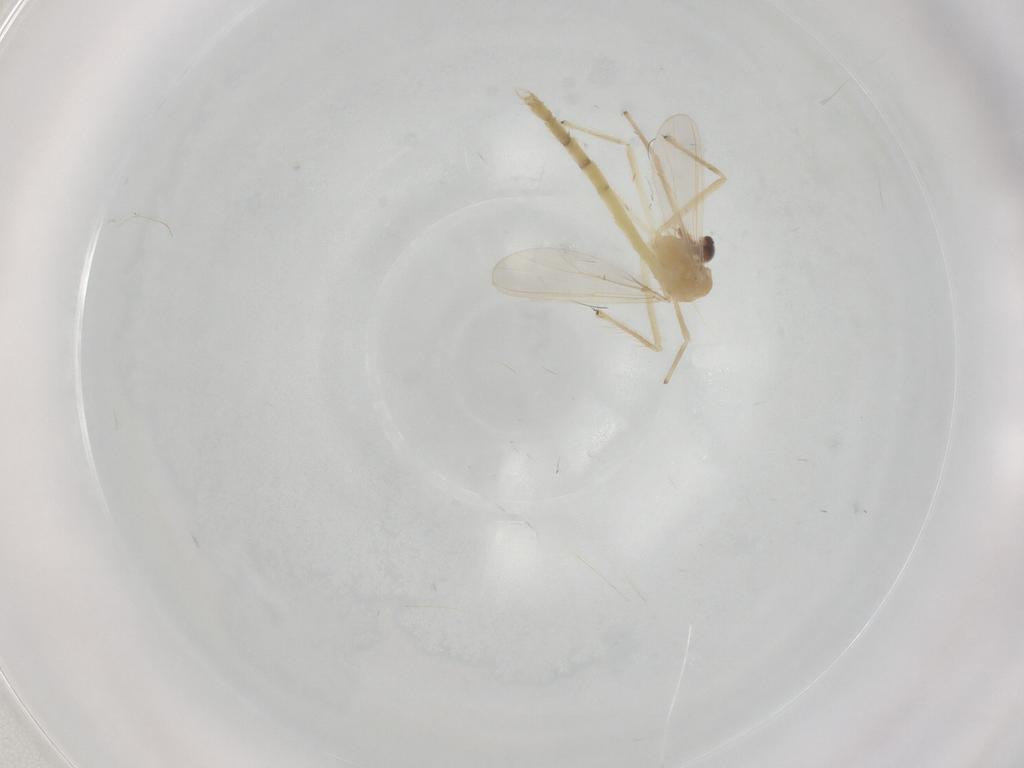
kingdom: Animalia
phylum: Arthropoda
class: Insecta
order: Diptera
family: Chironomidae
